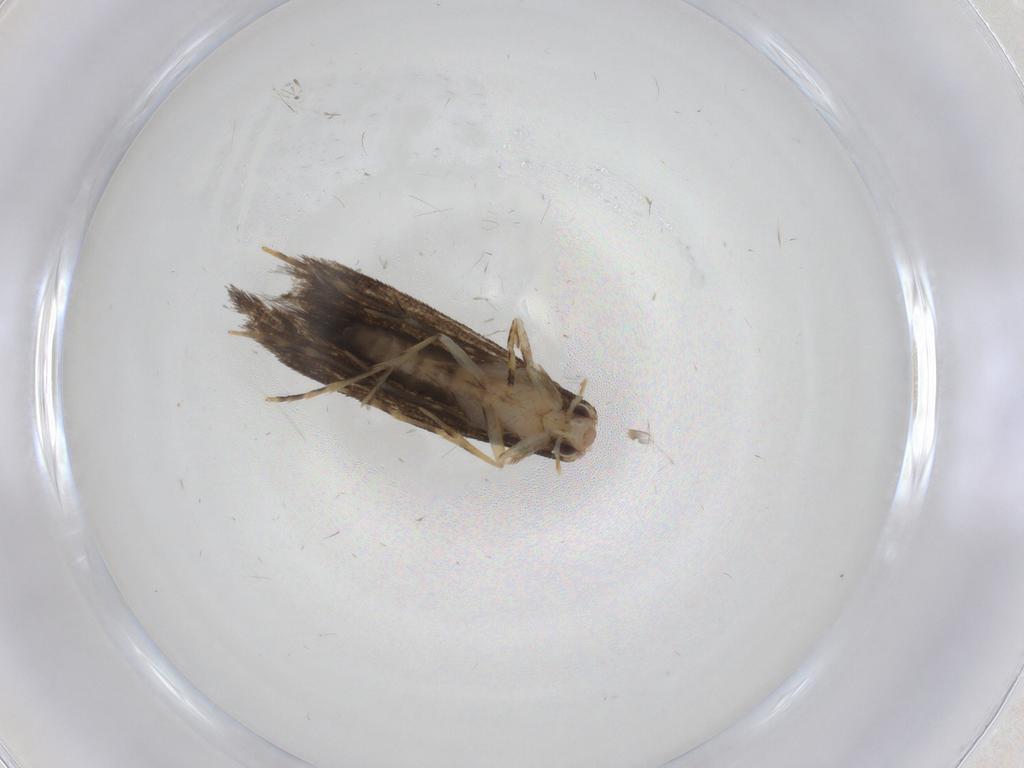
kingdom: Animalia
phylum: Arthropoda
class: Insecta
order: Lepidoptera
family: Tineidae
